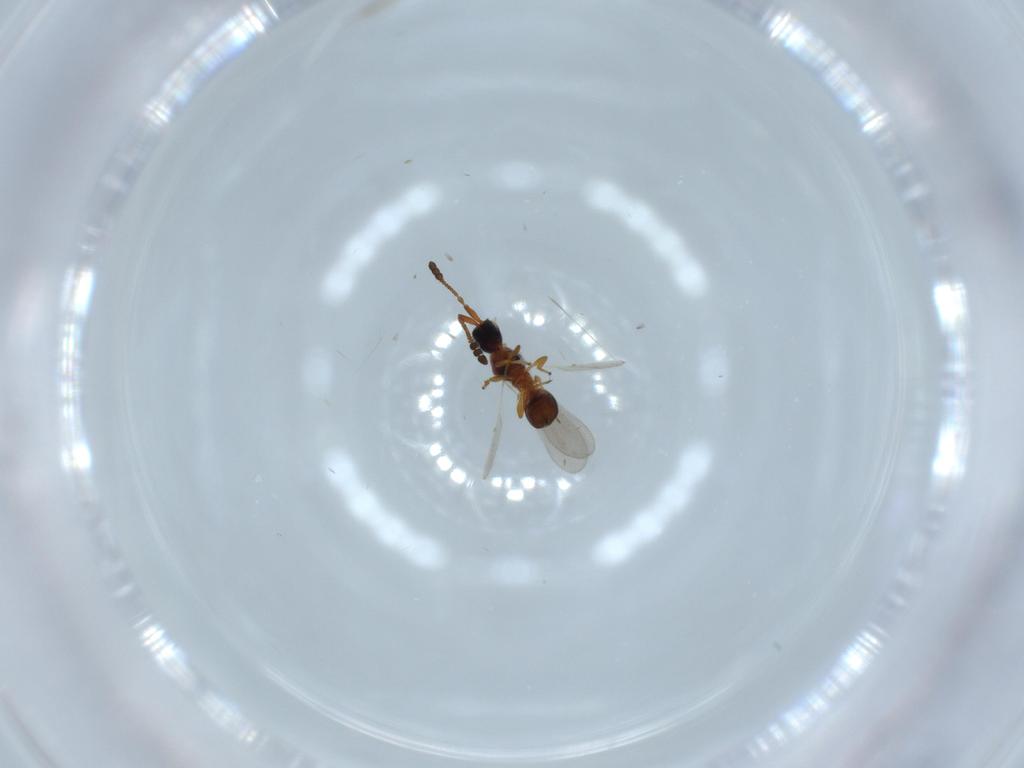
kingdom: Animalia
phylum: Arthropoda
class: Insecta
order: Hymenoptera
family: Diapriidae
